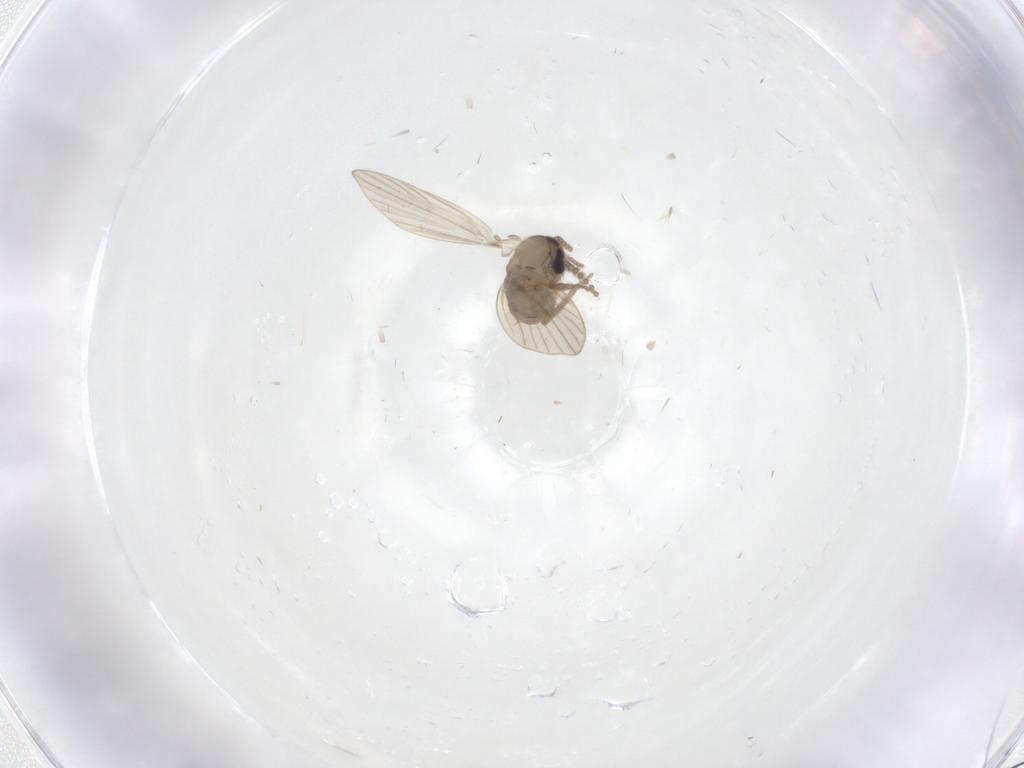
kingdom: Animalia
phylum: Arthropoda
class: Insecta
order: Diptera
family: Psychodidae
